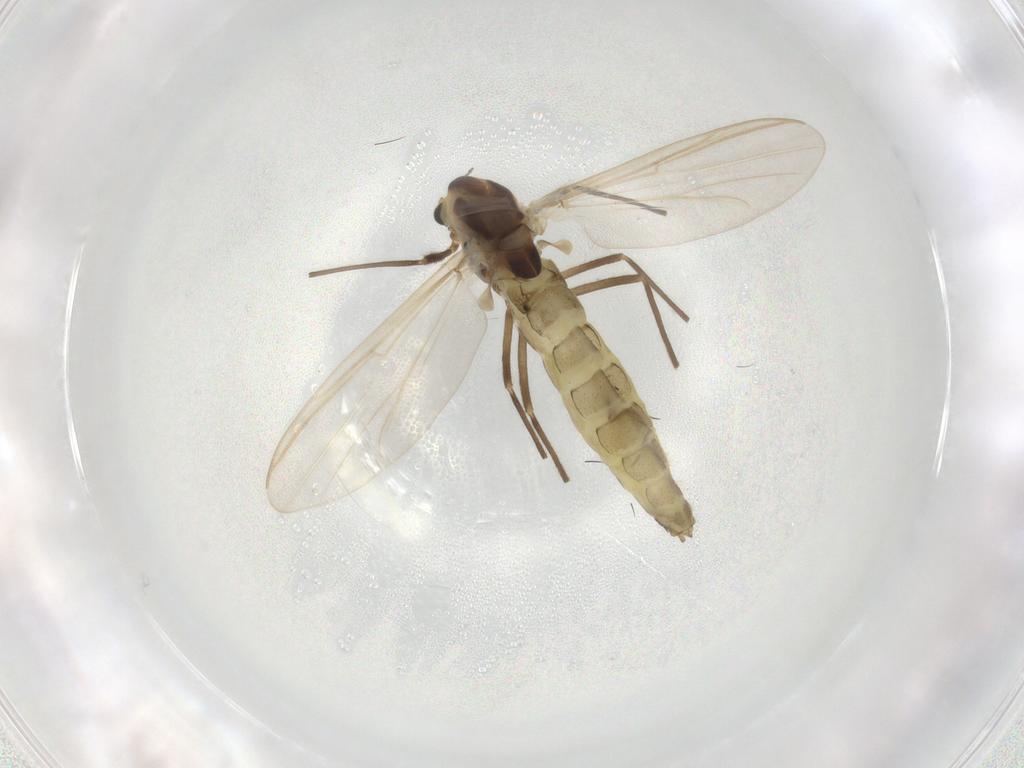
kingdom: Animalia
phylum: Arthropoda
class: Insecta
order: Diptera
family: Chironomidae
